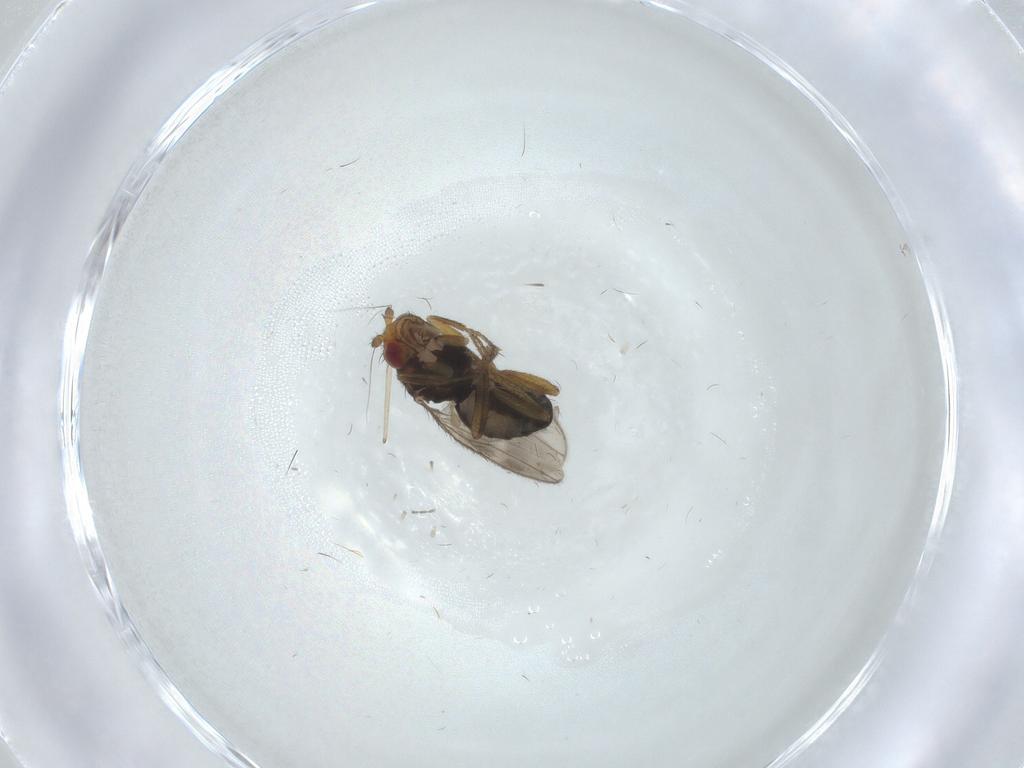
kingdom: Animalia
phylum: Arthropoda
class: Insecta
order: Diptera
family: Sphaeroceridae
